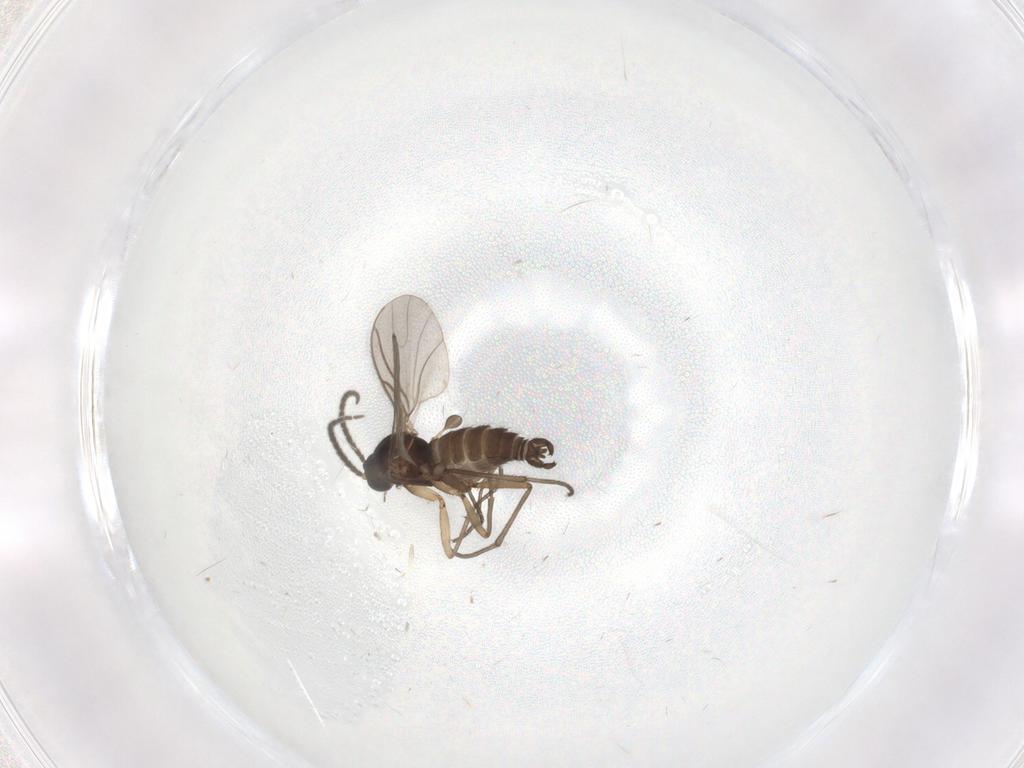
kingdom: Animalia
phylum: Arthropoda
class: Insecta
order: Diptera
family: Sciaridae
